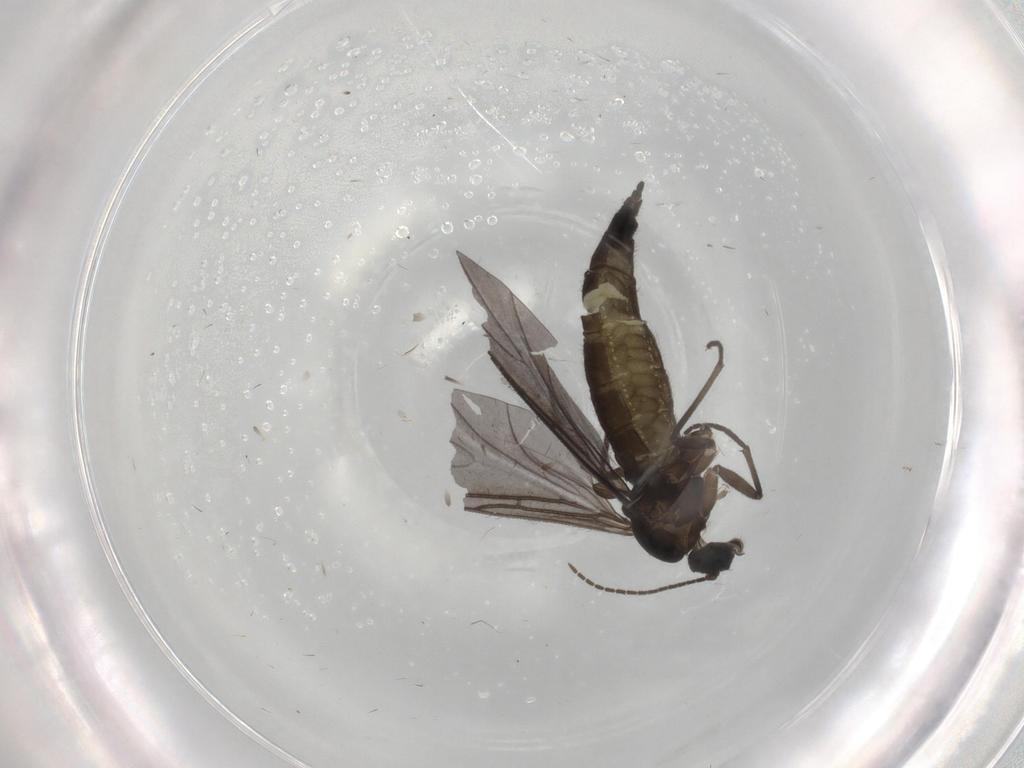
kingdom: Animalia
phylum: Arthropoda
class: Insecta
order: Diptera
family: Sciaridae
